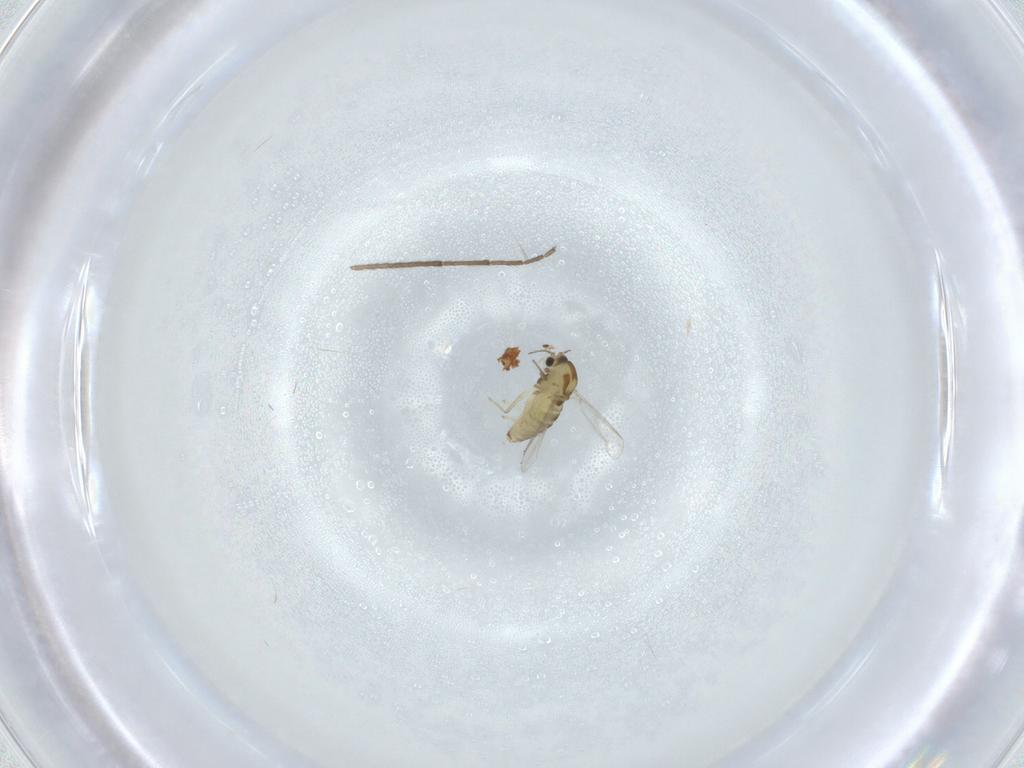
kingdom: Animalia
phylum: Arthropoda
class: Insecta
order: Diptera
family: Chironomidae
